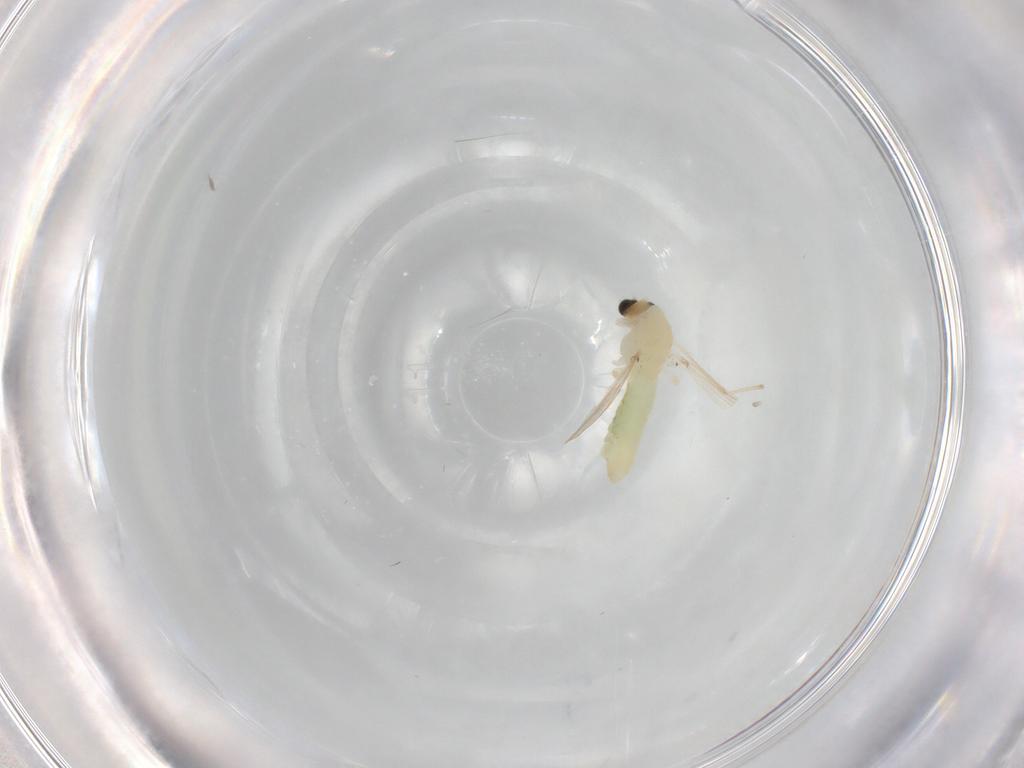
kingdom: Animalia
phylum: Arthropoda
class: Insecta
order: Diptera
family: Chironomidae
